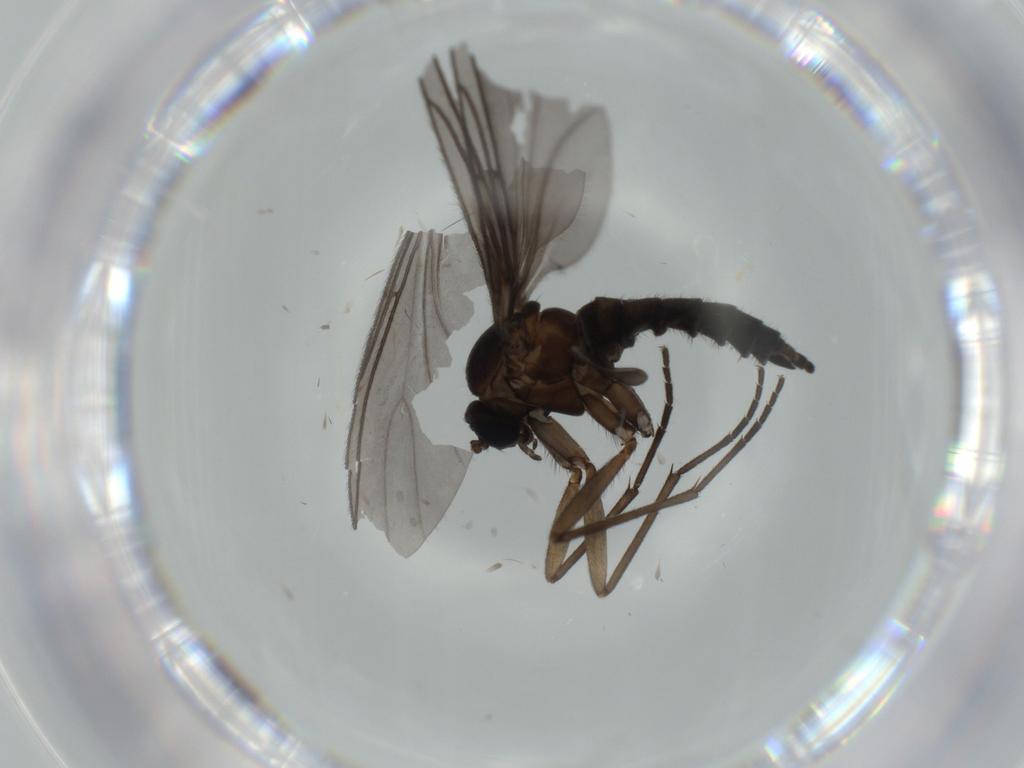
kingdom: Animalia
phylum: Arthropoda
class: Insecta
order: Diptera
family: Sciaridae
